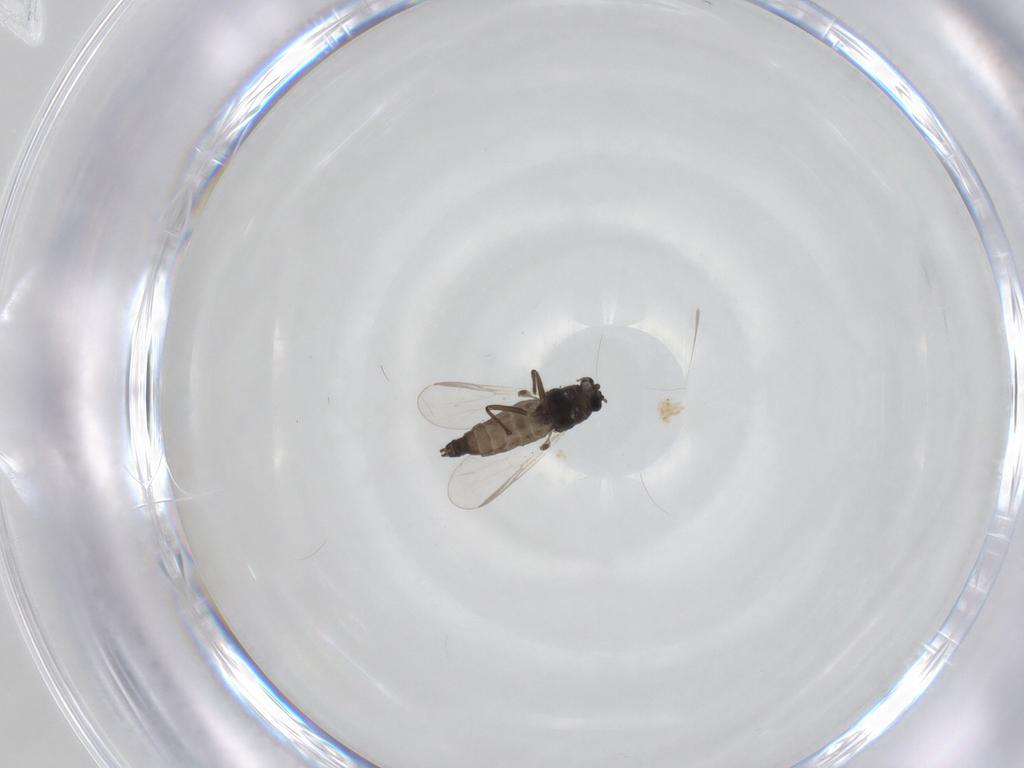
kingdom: Animalia
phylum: Arthropoda
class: Insecta
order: Diptera
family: Chironomidae
